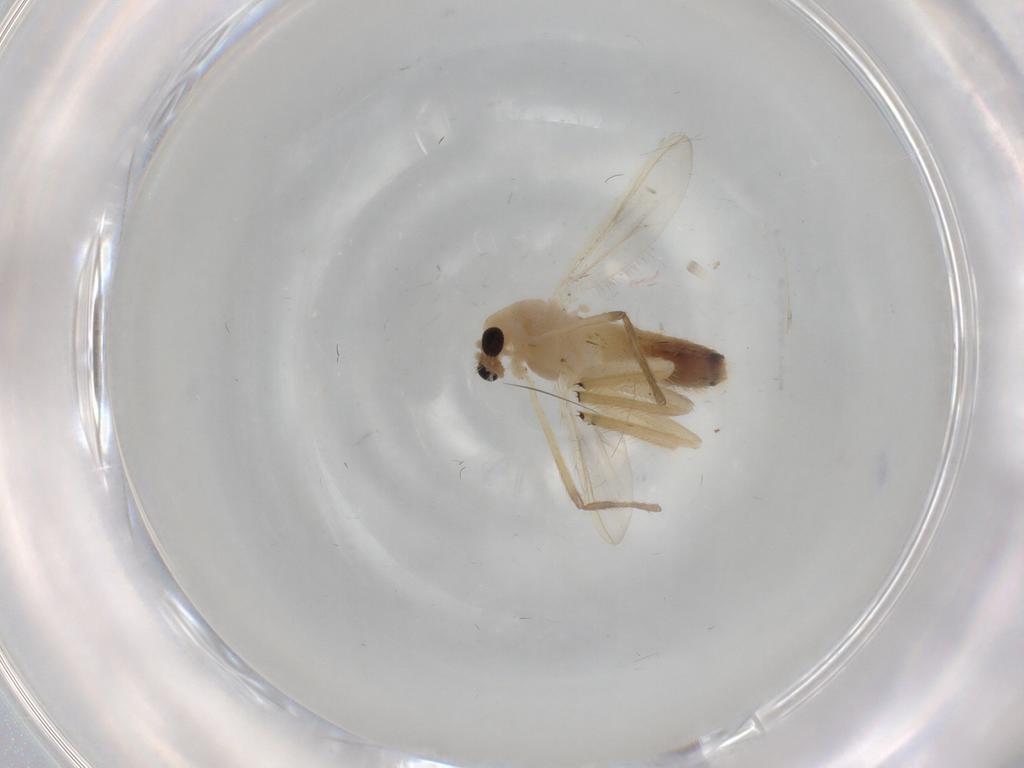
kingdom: Animalia
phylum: Arthropoda
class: Insecta
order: Diptera
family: Chironomidae
